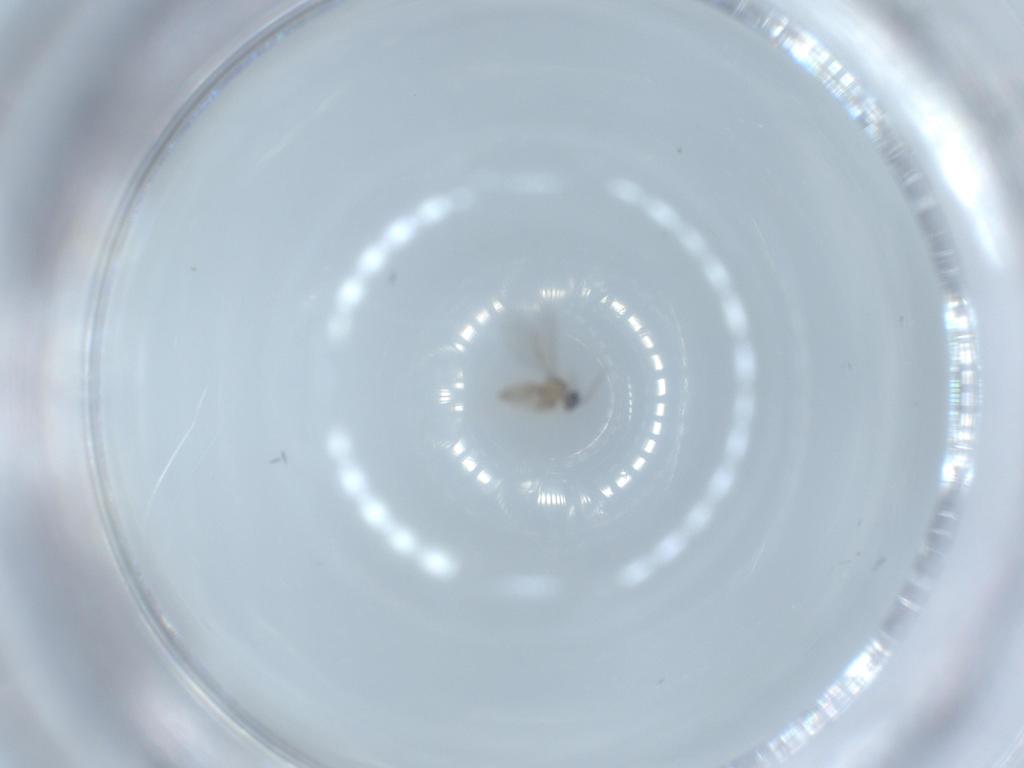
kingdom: Animalia
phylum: Arthropoda
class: Insecta
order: Diptera
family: Cecidomyiidae
